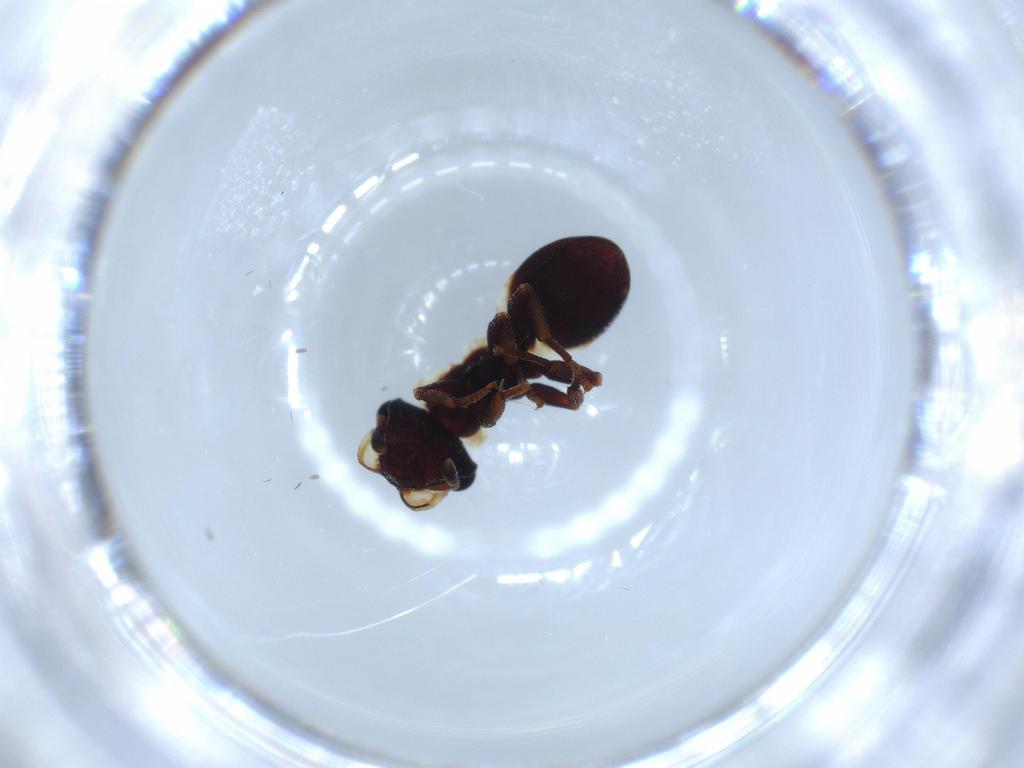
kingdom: Animalia
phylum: Arthropoda
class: Insecta
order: Hymenoptera
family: Formicidae
